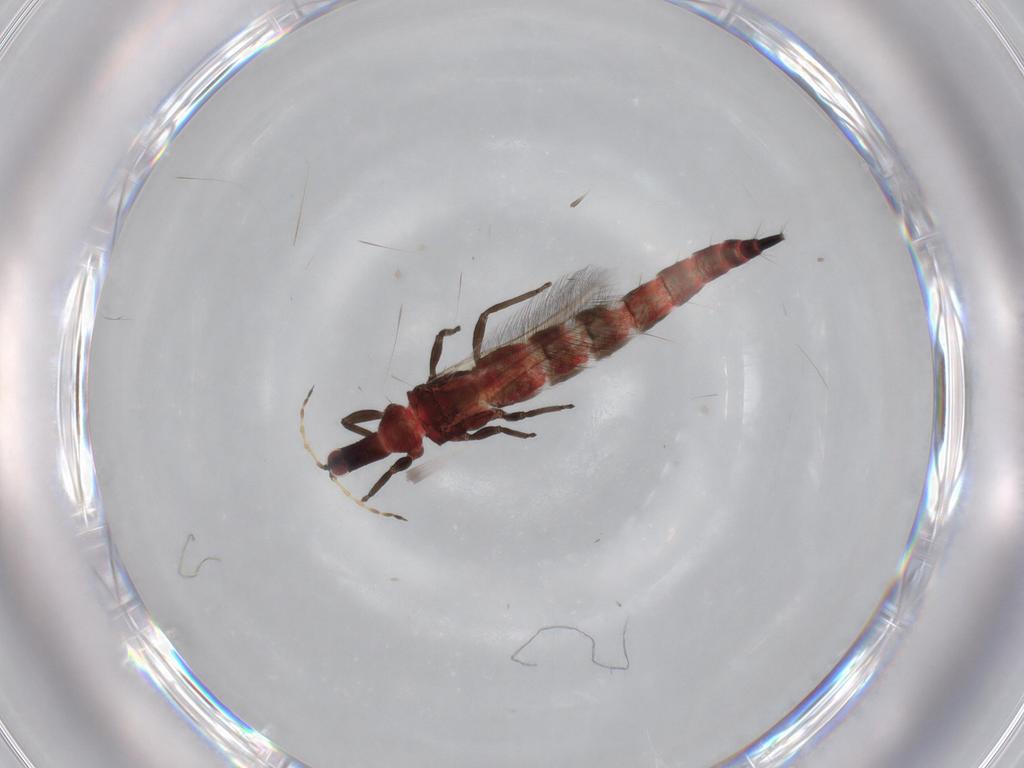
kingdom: Animalia
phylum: Arthropoda
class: Insecta
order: Thysanoptera
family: Phlaeothripidae
